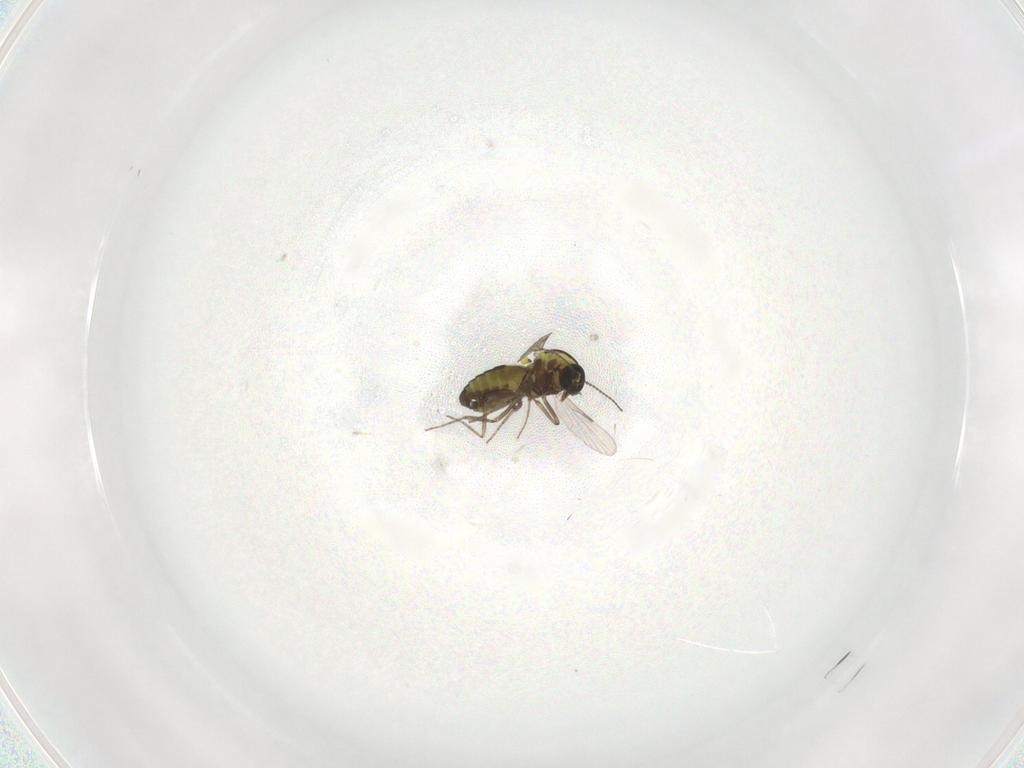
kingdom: Animalia
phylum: Arthropoda
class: Insecta
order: Diptera
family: Ceratopogonidae
